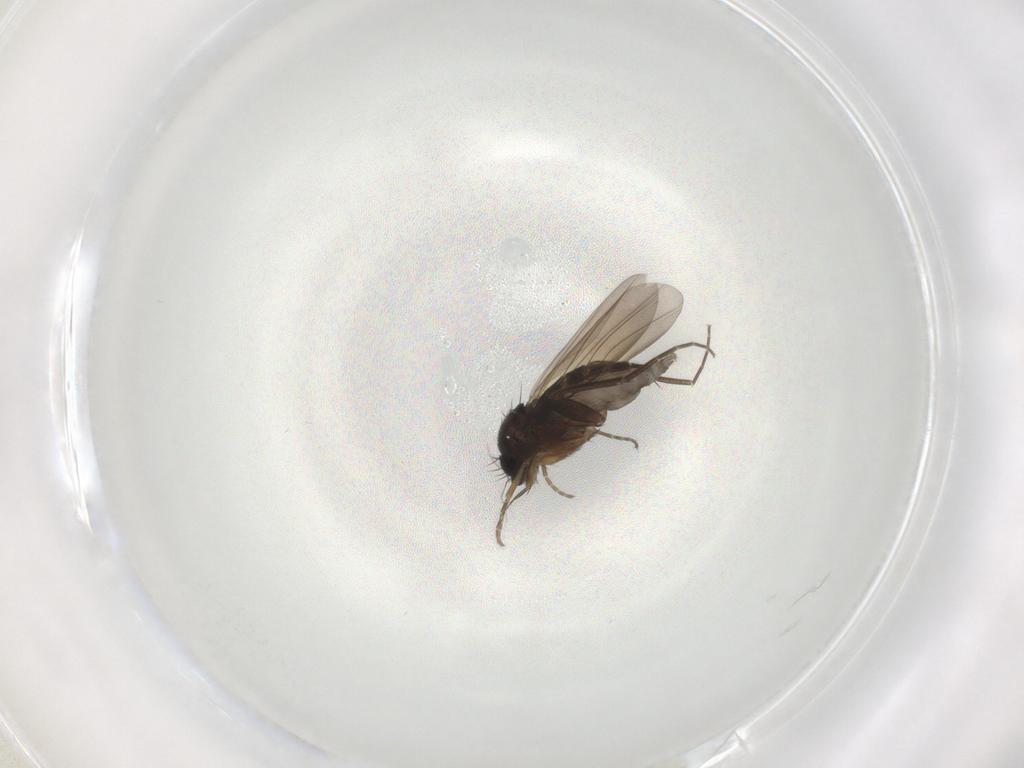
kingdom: Animalia
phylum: Arthropoda
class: Insecta
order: Diptera
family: Phoridae
